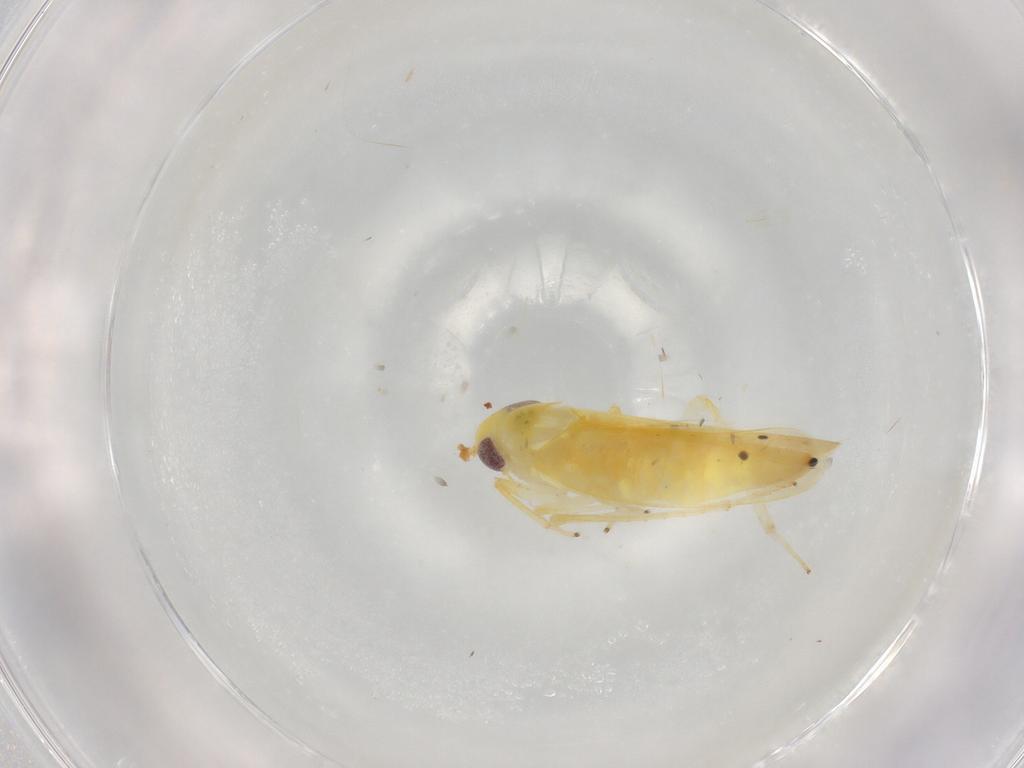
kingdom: Animalia
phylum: Arthropoda
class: Insecta
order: Hemiptera
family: Cicadellidae
